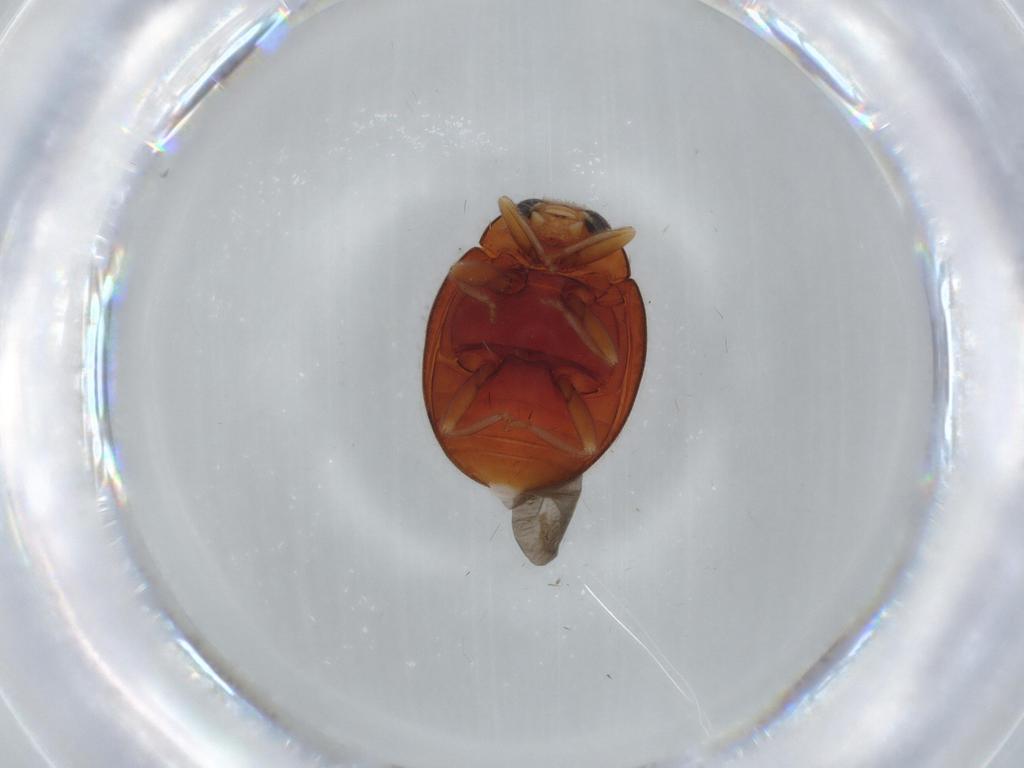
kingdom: Animalia
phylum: Arthropoda
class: Insecta
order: Coleoptera
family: Coccinellidae
